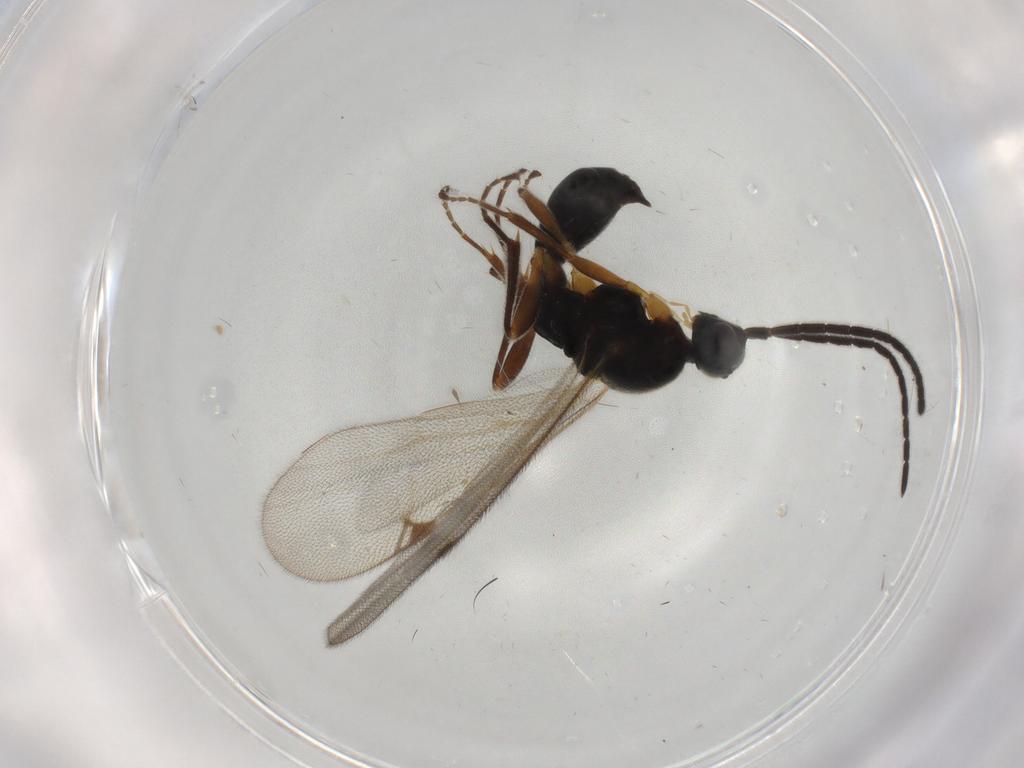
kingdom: Animalia
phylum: Arthropoda
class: Insecta
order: Hymenoptera
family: Proctotrupidae
